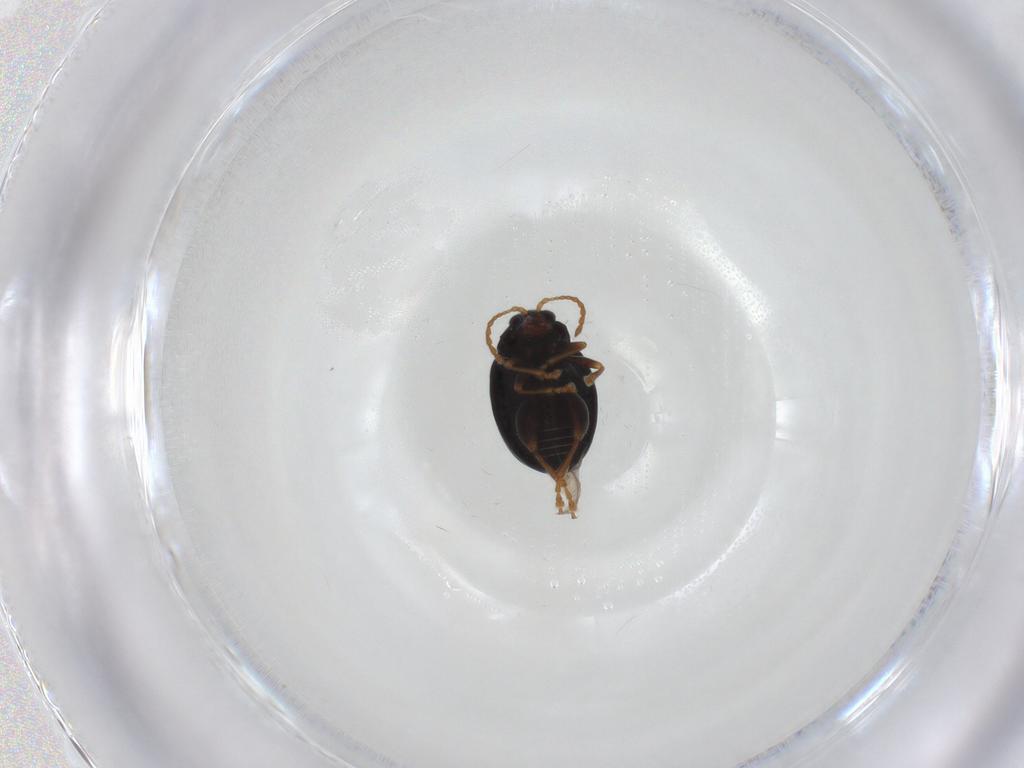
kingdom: Animalia
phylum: Arthropoda
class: Insecta
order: Coleoptera
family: Chrysomelidae
